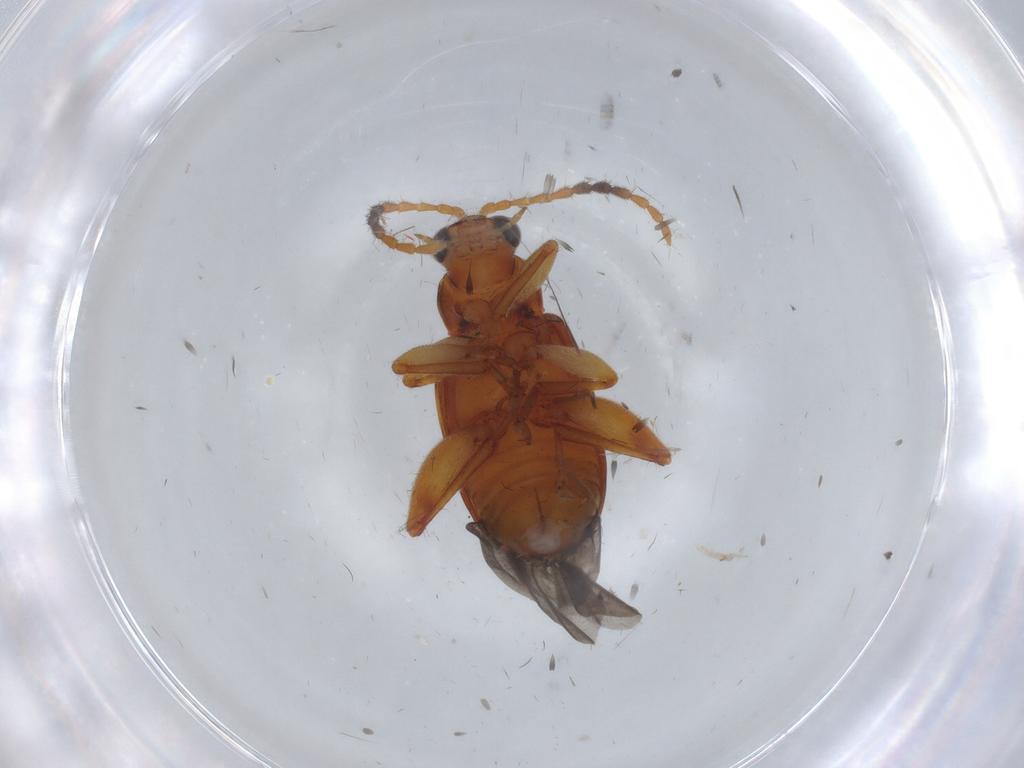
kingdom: Animalia
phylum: Arthropoda
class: Insecta
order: Coleoptera
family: Chrysomelidae
